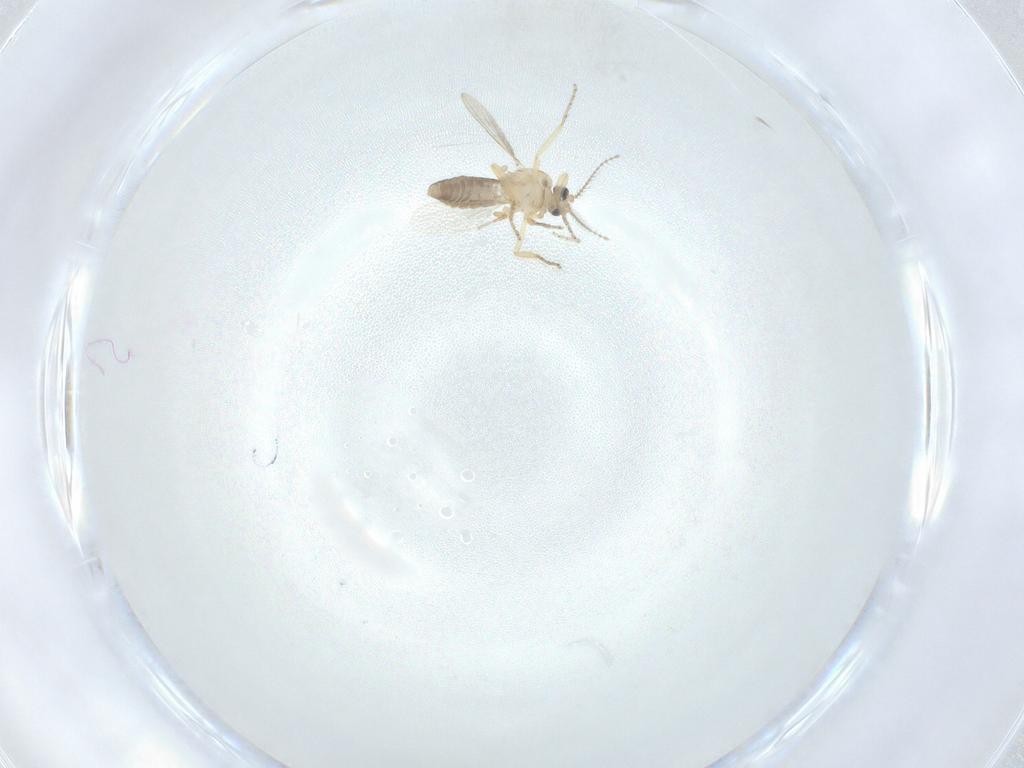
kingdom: Animalia
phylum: Arthropoda
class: Insecta
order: Diptera
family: Ceratopogonidae
